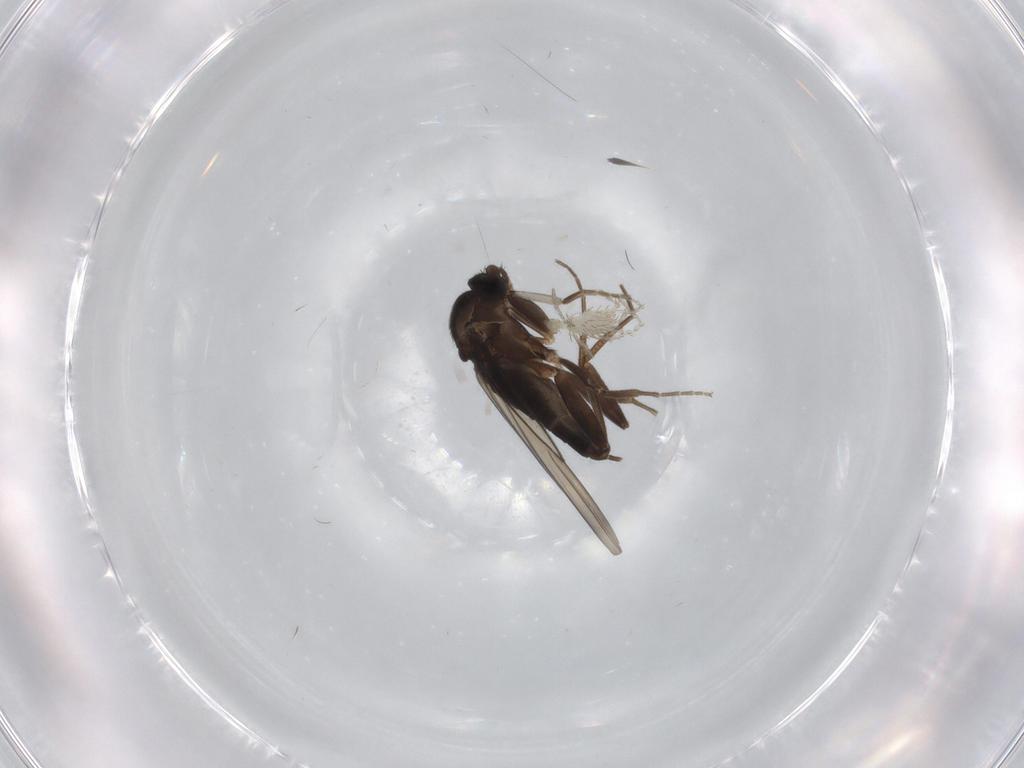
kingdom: Animalia
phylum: Arthropoda
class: Insecta
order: Diptera
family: Phoridae
